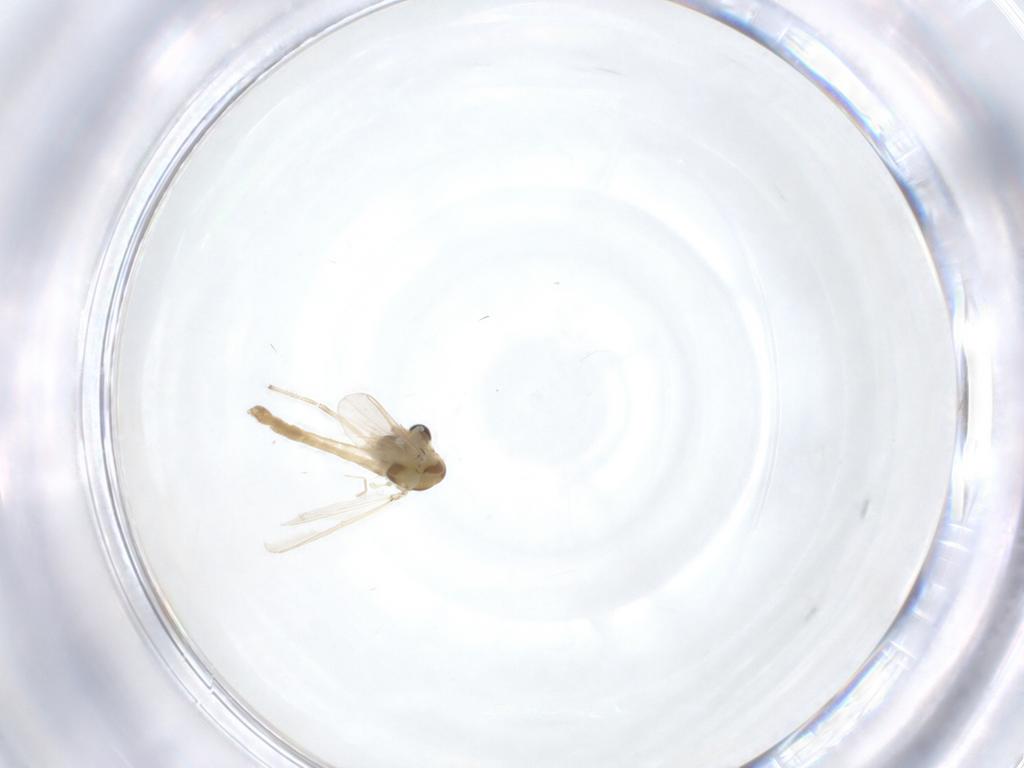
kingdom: Animalia
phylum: Arthropoda
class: Insecta
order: Diptera
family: Chironomidae
